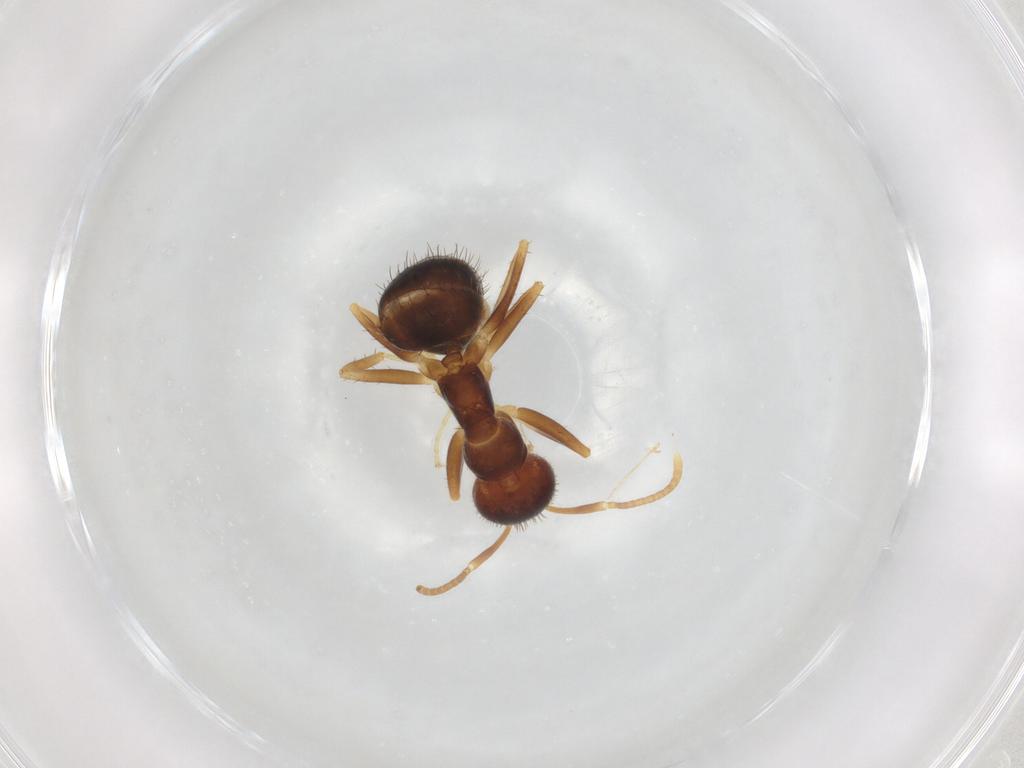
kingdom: Animalia
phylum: Arthropoda
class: Insecta
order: Hymenoptera
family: Formicidae
